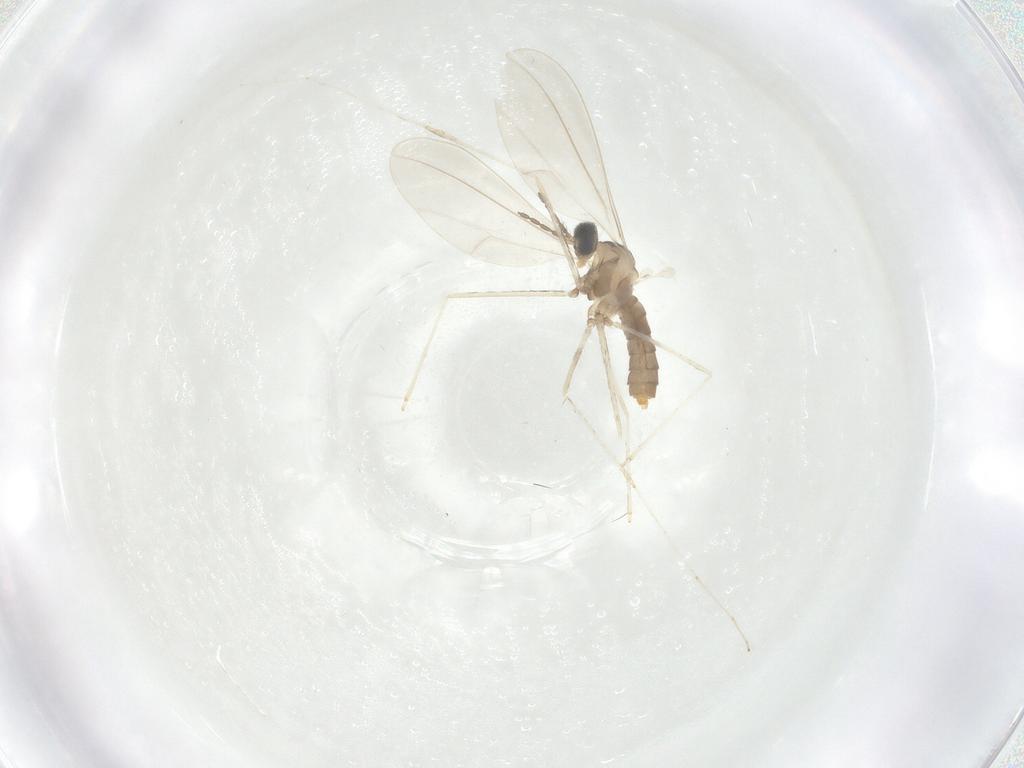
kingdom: Animalia
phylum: Arthropoda
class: Insecta
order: Diptera
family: Cecidomyiidae
